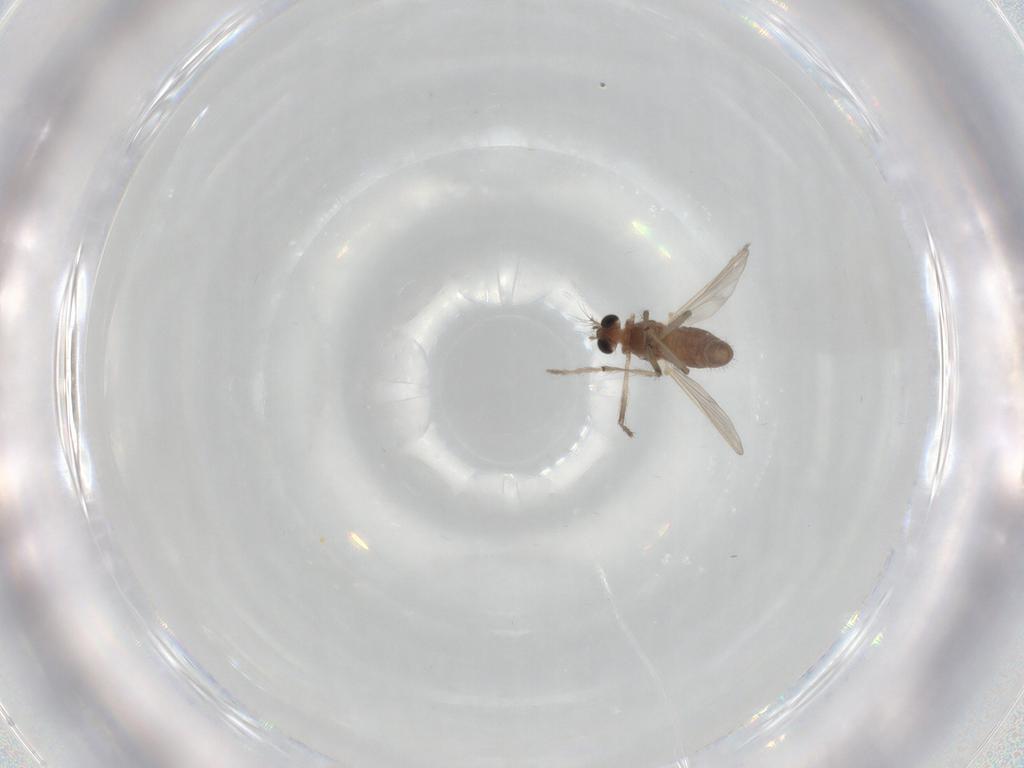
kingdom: Animalia
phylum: Arthropoda
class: Insecta
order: Diptera
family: Chironomidae
